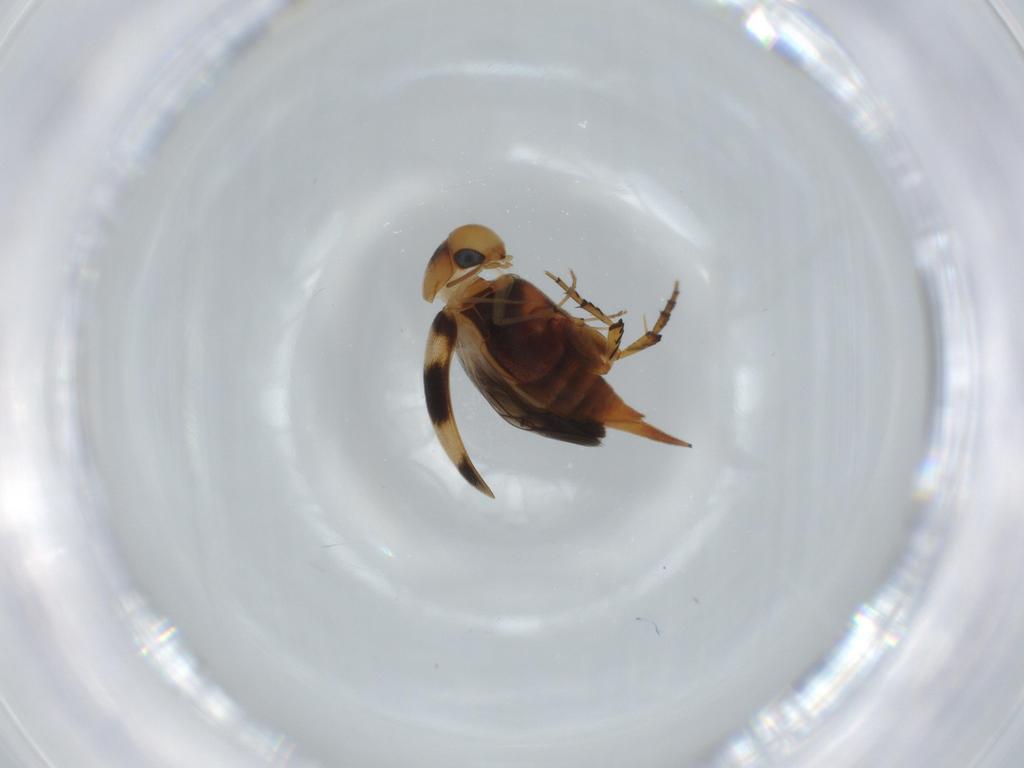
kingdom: Animalia
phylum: Arthropoda
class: Insecta
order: Coleoptera
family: Mordellidae
